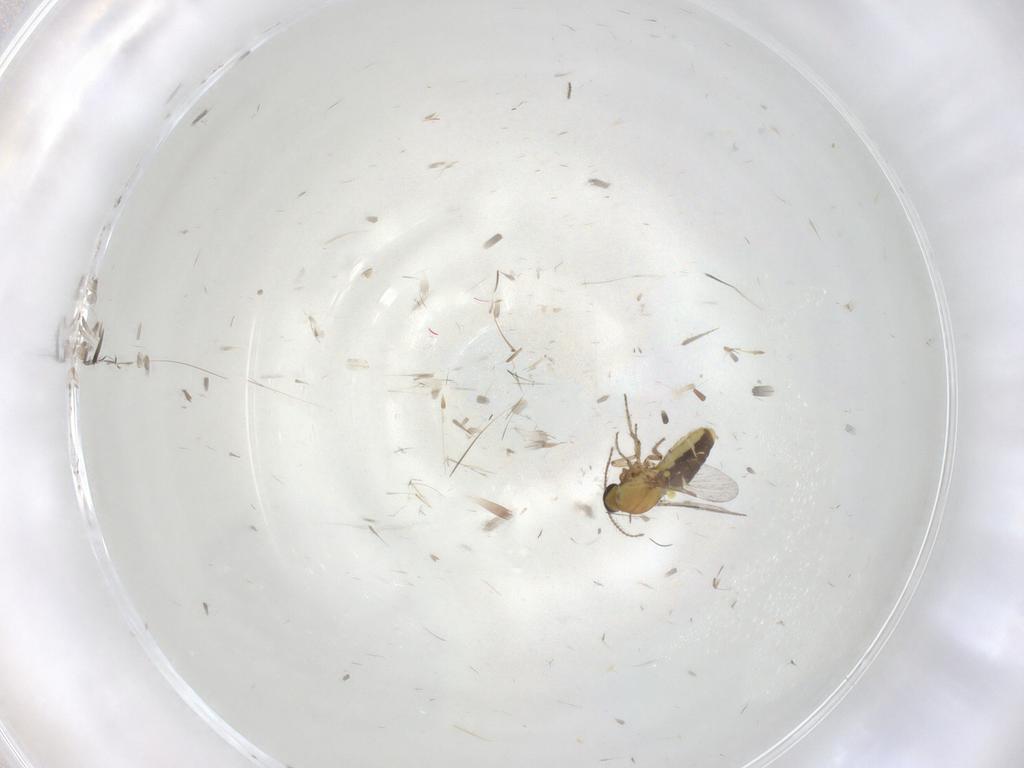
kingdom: Animalia
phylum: Arthropoda
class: Insecta
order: Diptera
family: Ceratopogonidae
